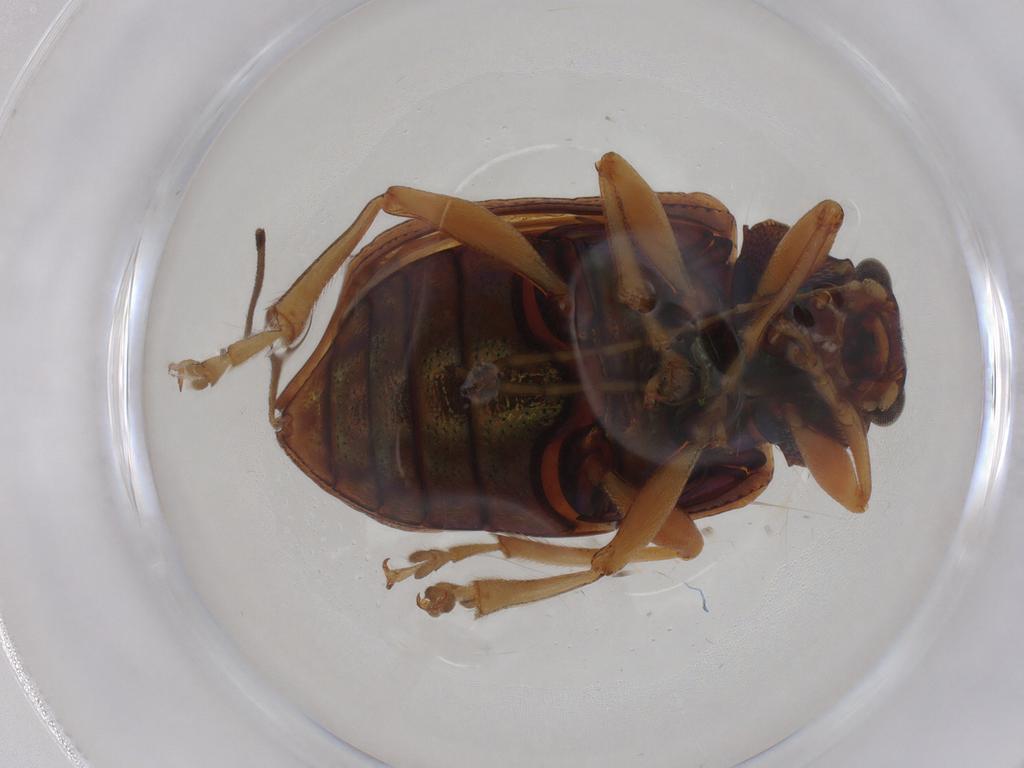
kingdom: Animalia
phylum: Arthropoda
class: Insecta
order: Coleoptera
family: Chrysomelidae
